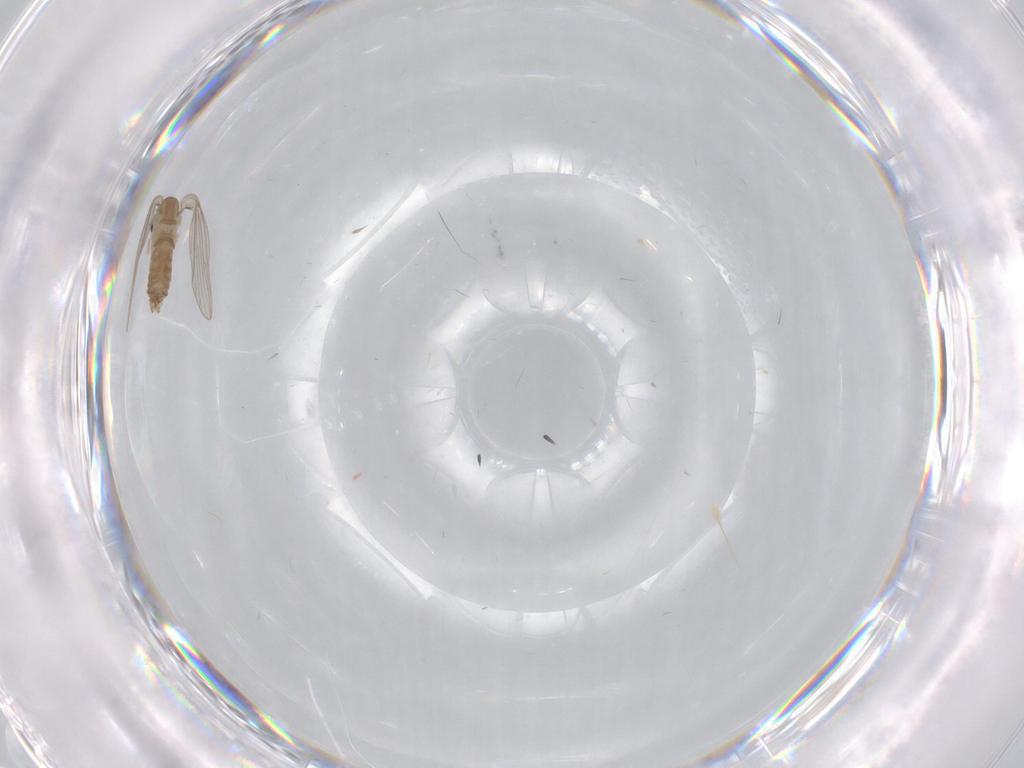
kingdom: Animalia
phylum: Arthropoda
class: Insecta
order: Diptera
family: Psychodidae
